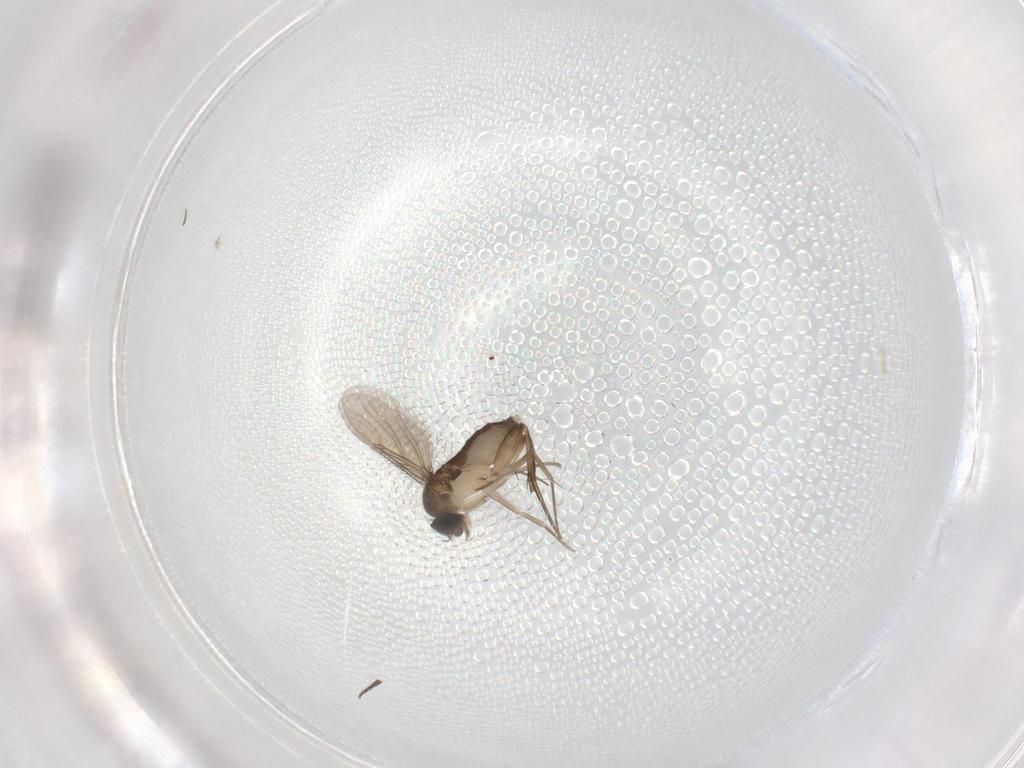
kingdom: Animalia
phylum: Arthropoda
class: Insecta
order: Diptera
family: Phoridae
